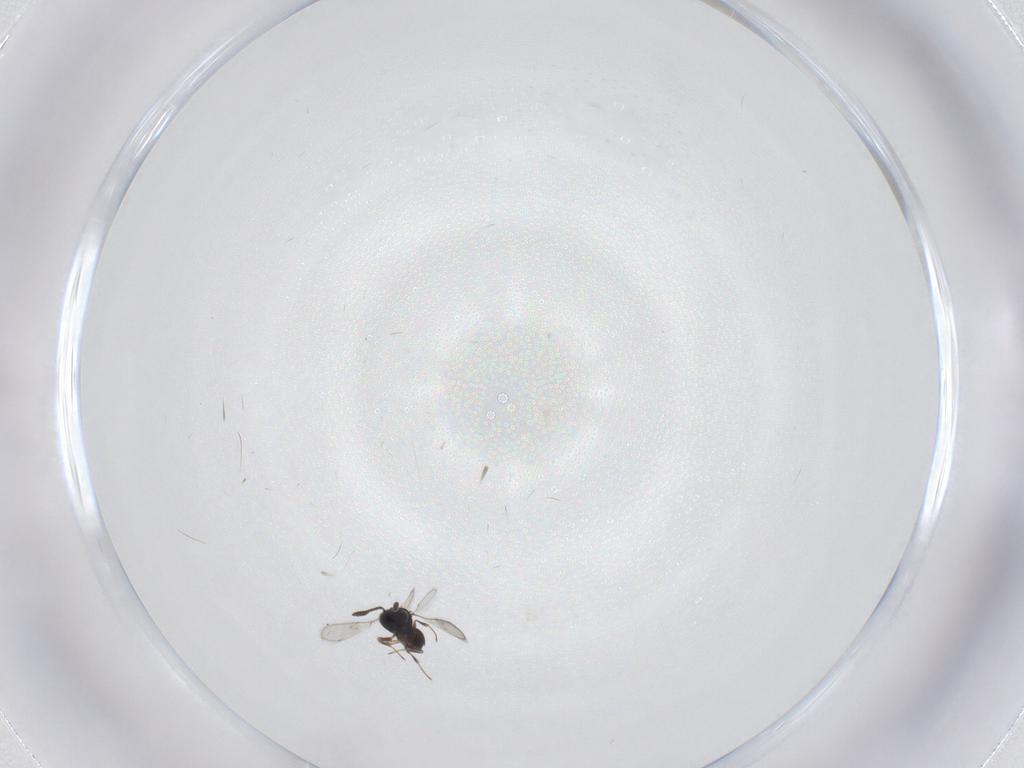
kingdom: Animalia
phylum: Arthropoda
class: Insecta
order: Hymenoptera
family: Scelionidae
